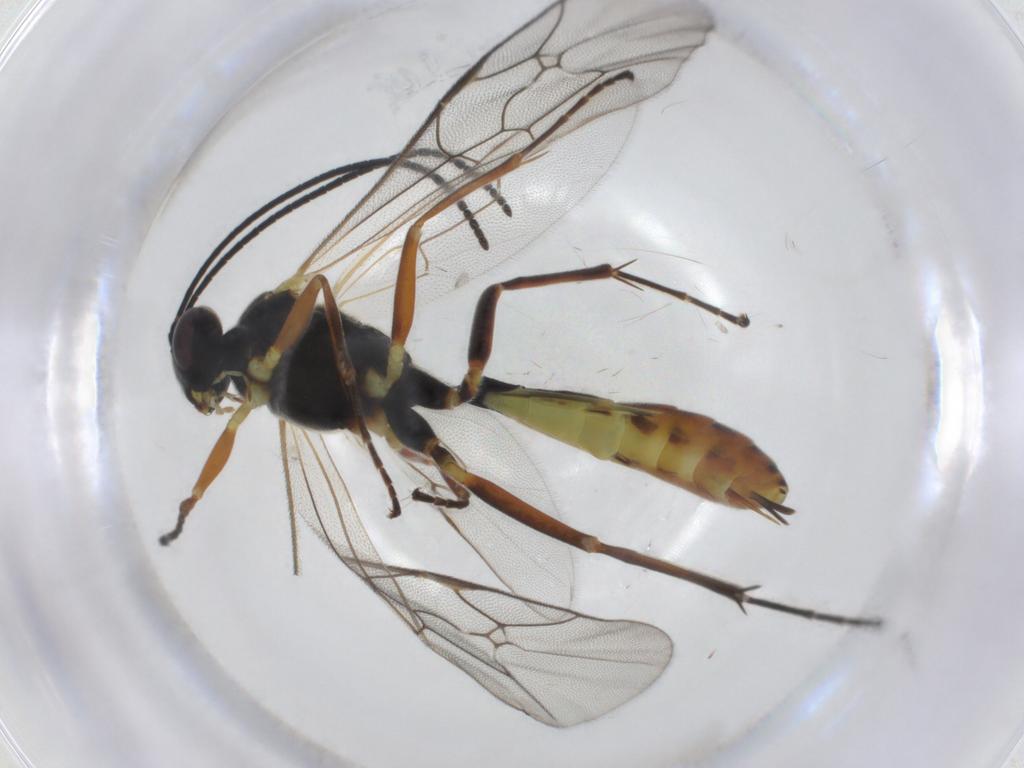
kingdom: Animalia
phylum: Arthropoda
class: Insecta
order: Hymenoptera
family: Ichneumonidae
